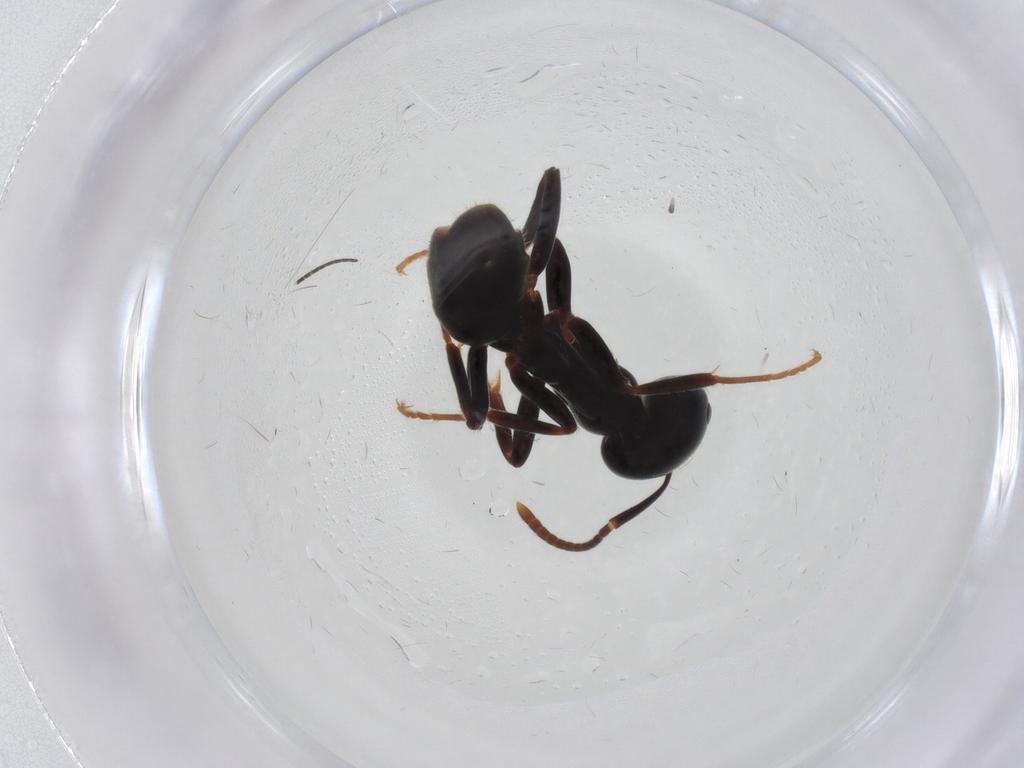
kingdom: Animalia
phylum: Arthropoda
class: Insecta
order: Hymenoptera
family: Formicidae
